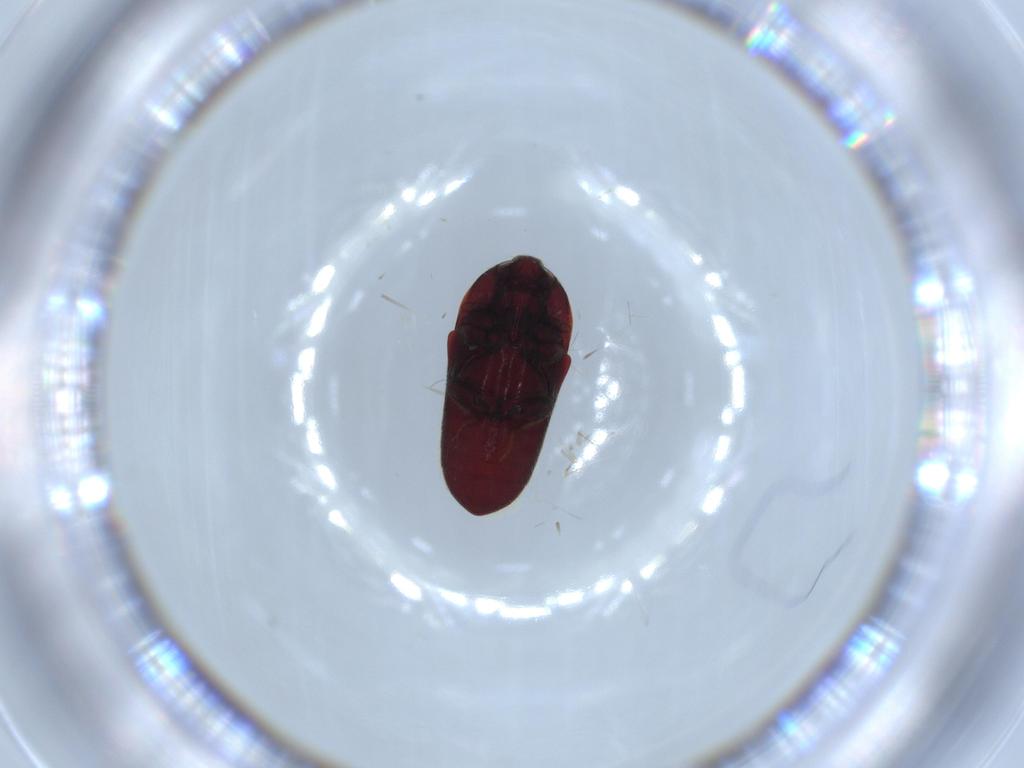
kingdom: Animalia
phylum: Arthropoda
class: Insecta
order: Coleoptera
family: Throscidae
